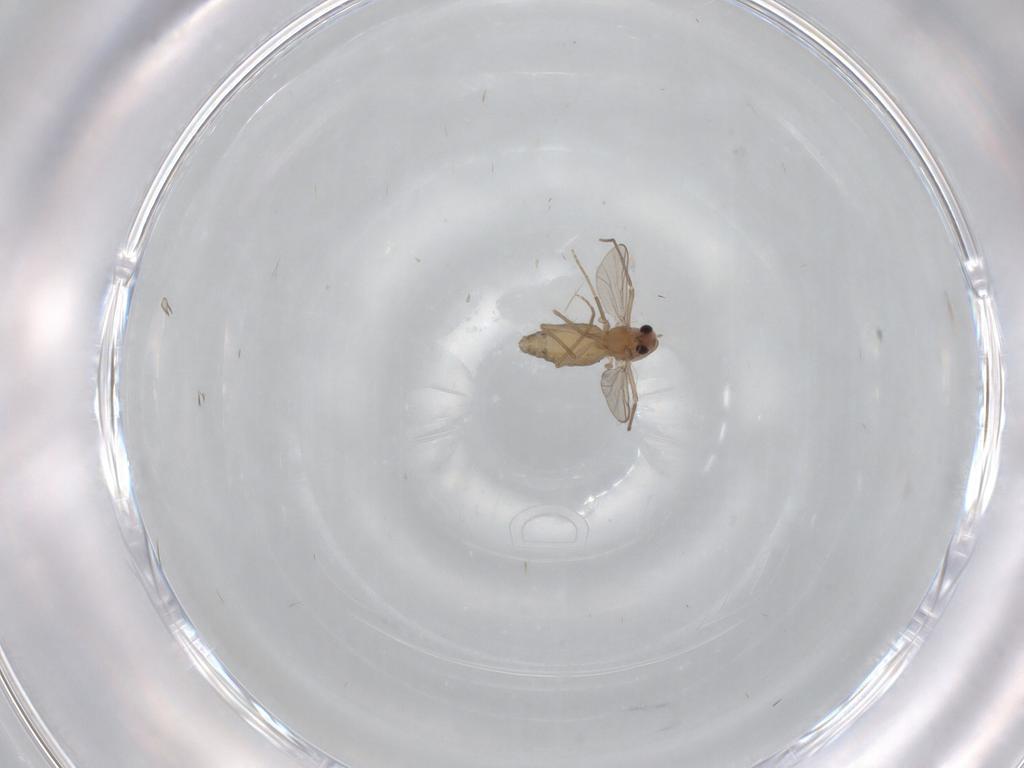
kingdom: Animalia
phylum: Arthropoda
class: Insecta
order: Diptera
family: Chironomidae
